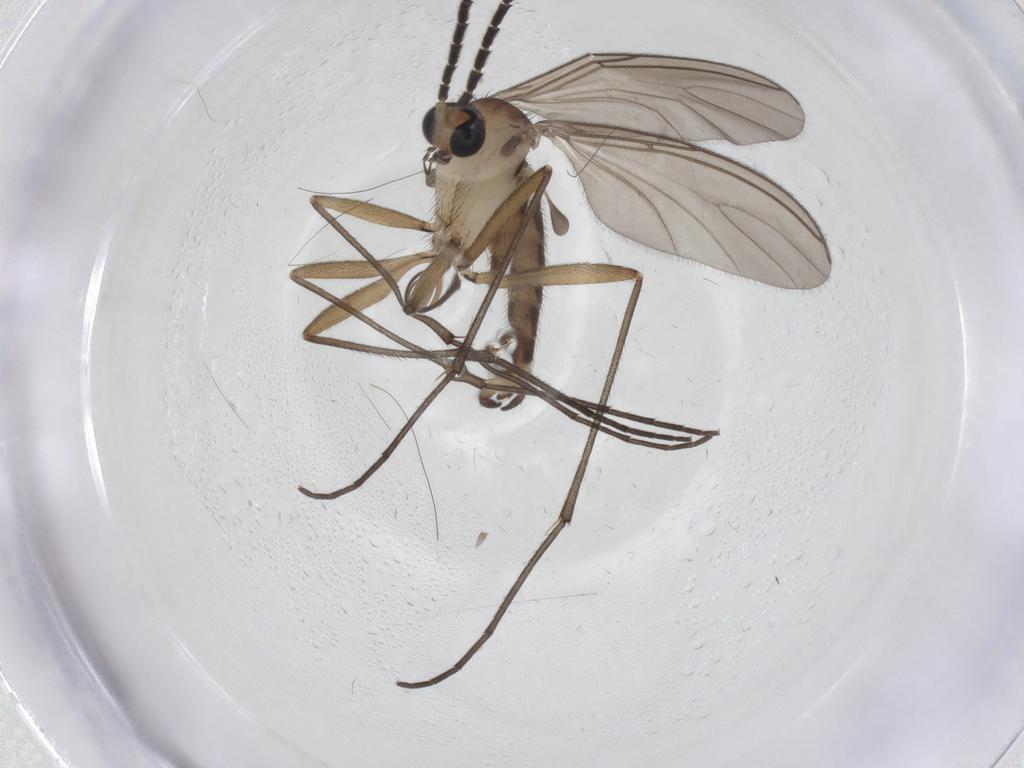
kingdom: Animalia
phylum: Arthropoda
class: Insecta
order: Diptera
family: Sciaridae
